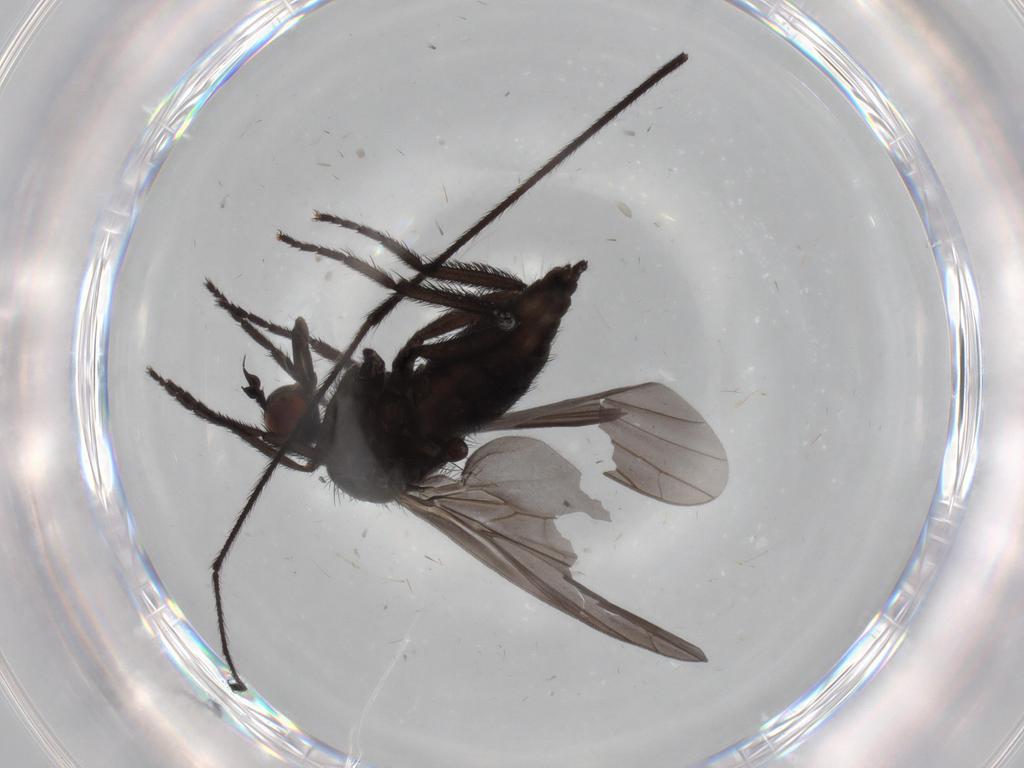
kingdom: Animalia
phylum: Arthropoda
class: Insecta
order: Diptera
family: Empididae
